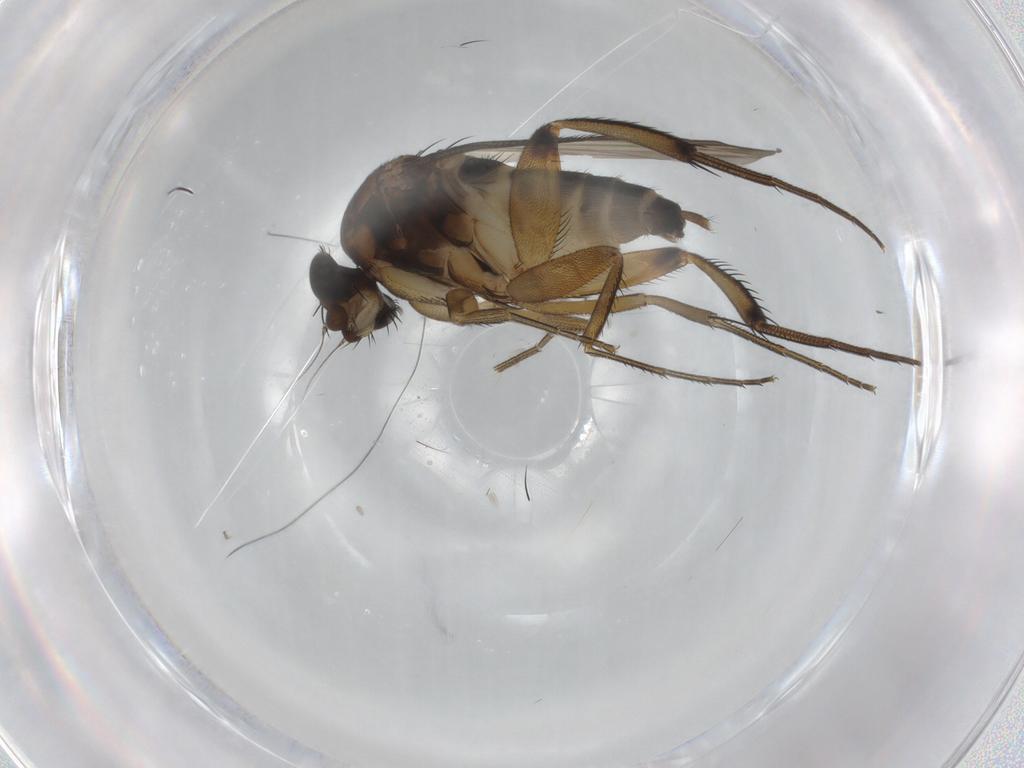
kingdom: Animalia
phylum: Arthropoda
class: Insecta
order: Diptera
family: Phoridae
